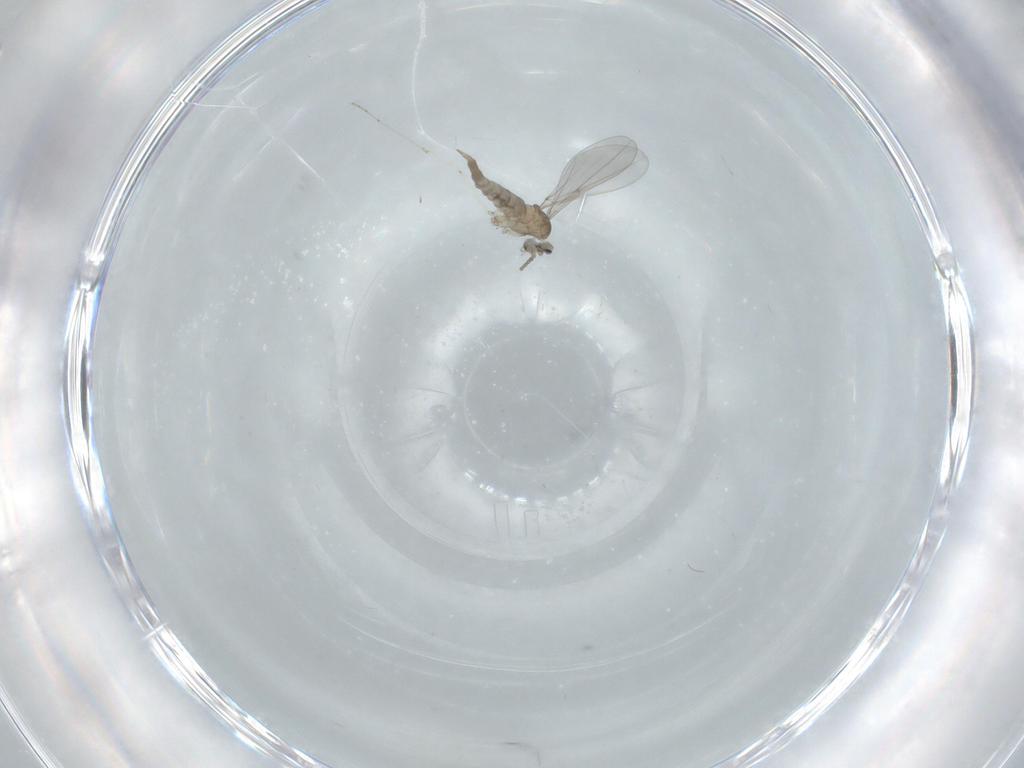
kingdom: Animalia
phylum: Arthropoda
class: Insecta
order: Diptera
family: Cecidomyiidae
